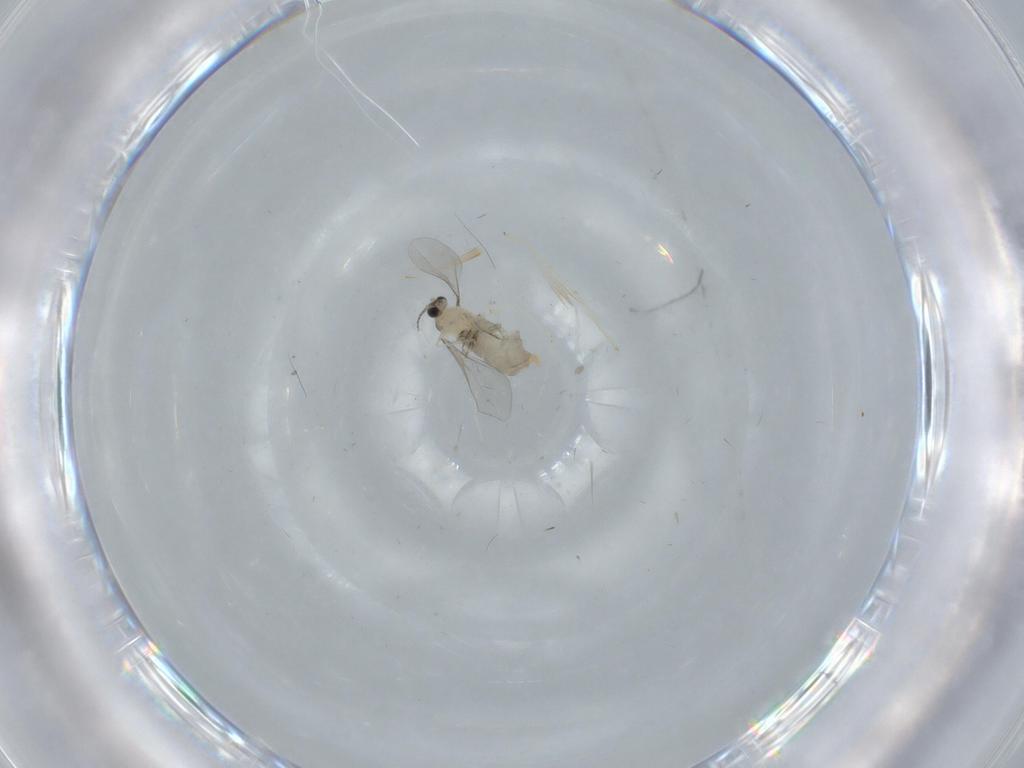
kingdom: Animalia
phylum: Arthropoda
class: Insecta
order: Diptera
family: Chironomidae
